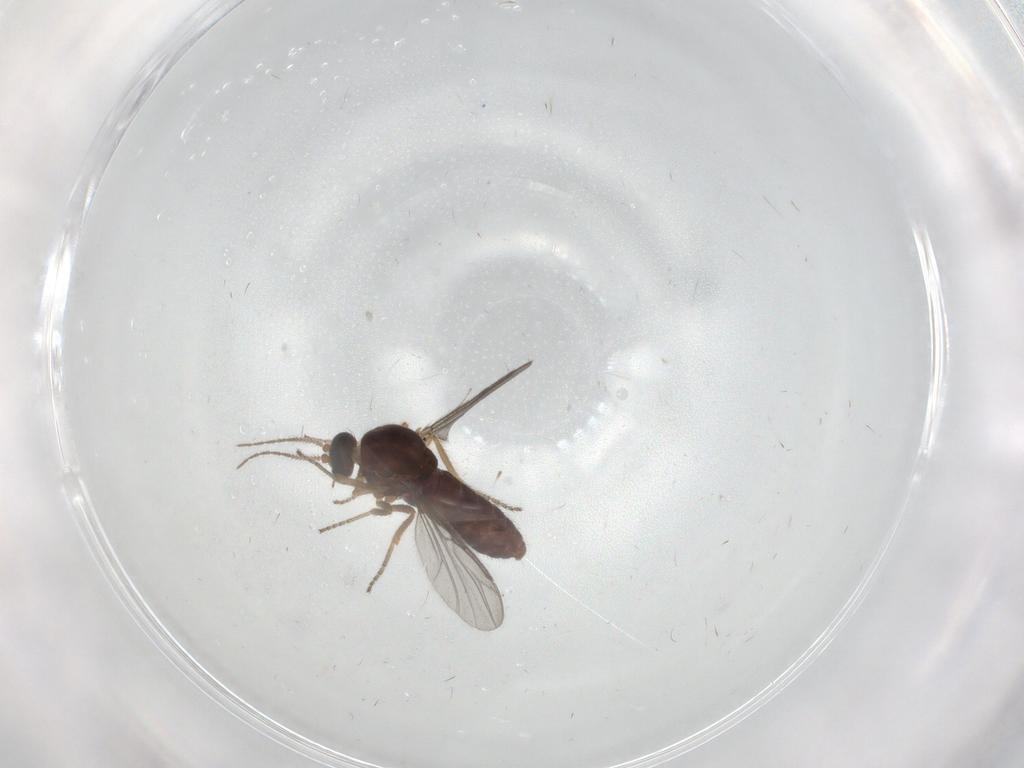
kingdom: Animalia
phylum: Arthropoda
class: Insecta
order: Diptera
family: Ceratopogonidae
